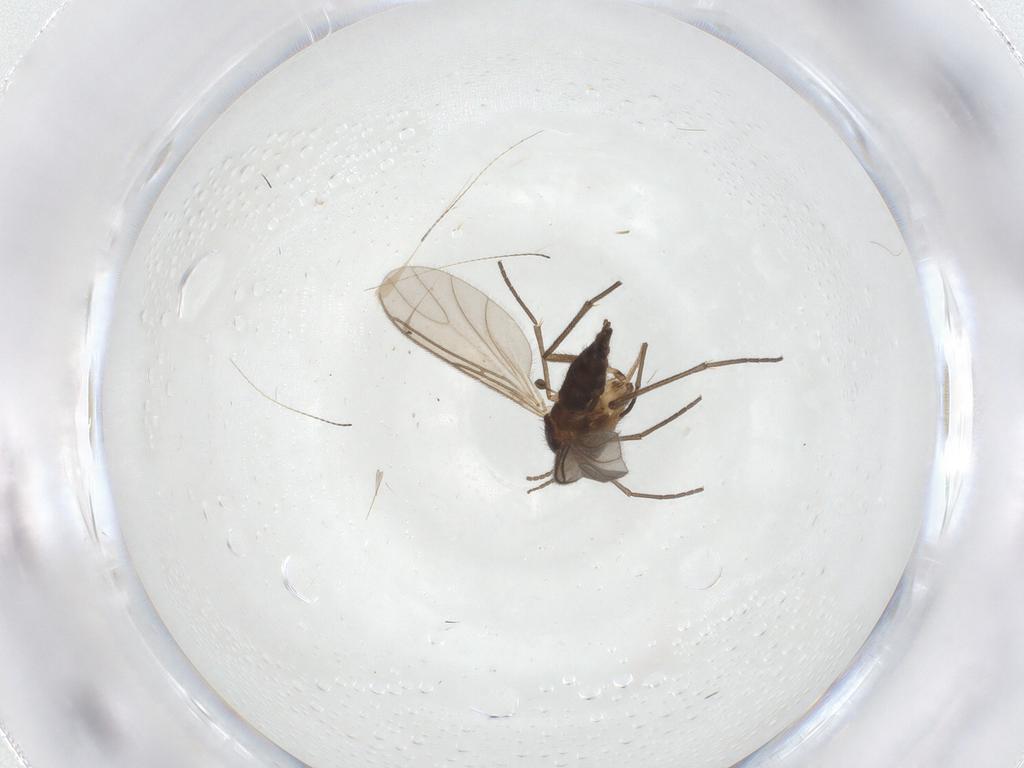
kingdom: Animalia
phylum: Arthropoda
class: Insecta
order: Diptera
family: Sciaridae
